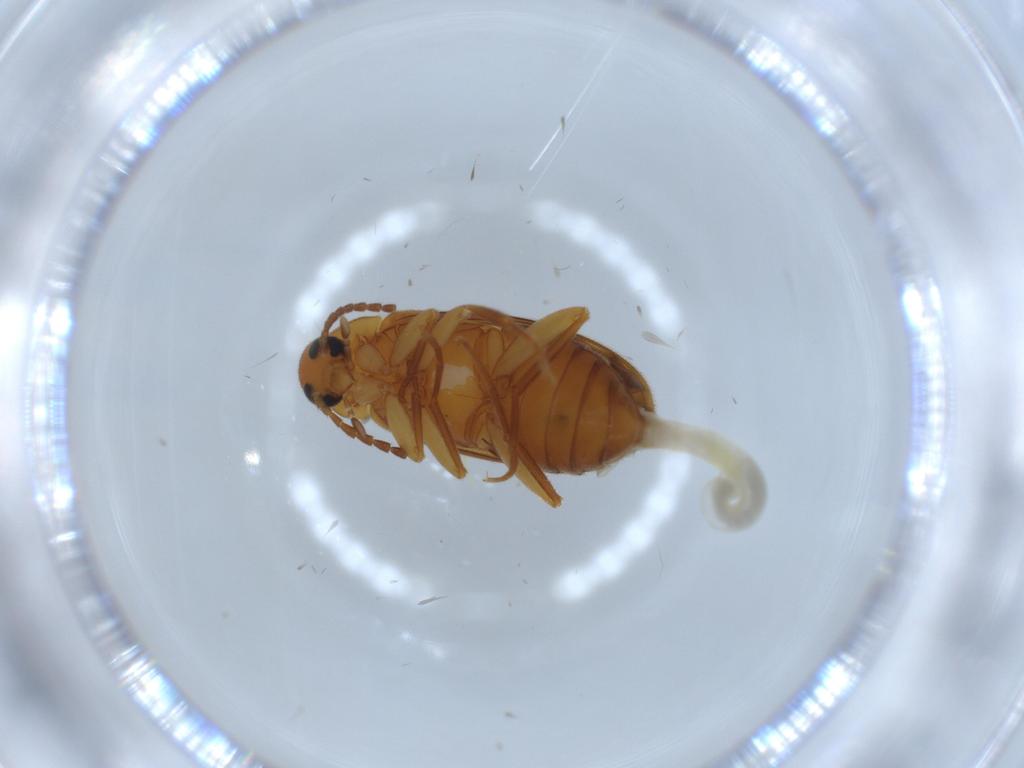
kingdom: Animalia
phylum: Arthropoda
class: Insecta
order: Coleoptera
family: Scraptiidae
